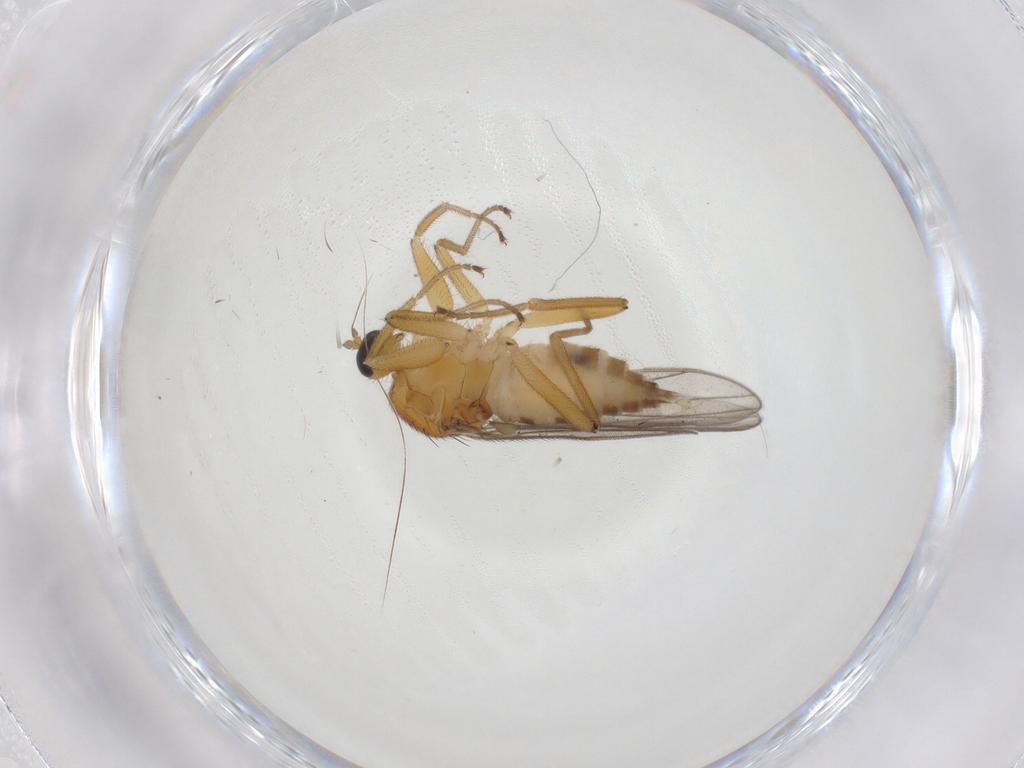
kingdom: Animalia
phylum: Arthropoda
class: Insecta
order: Diptera
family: Hybotidae
